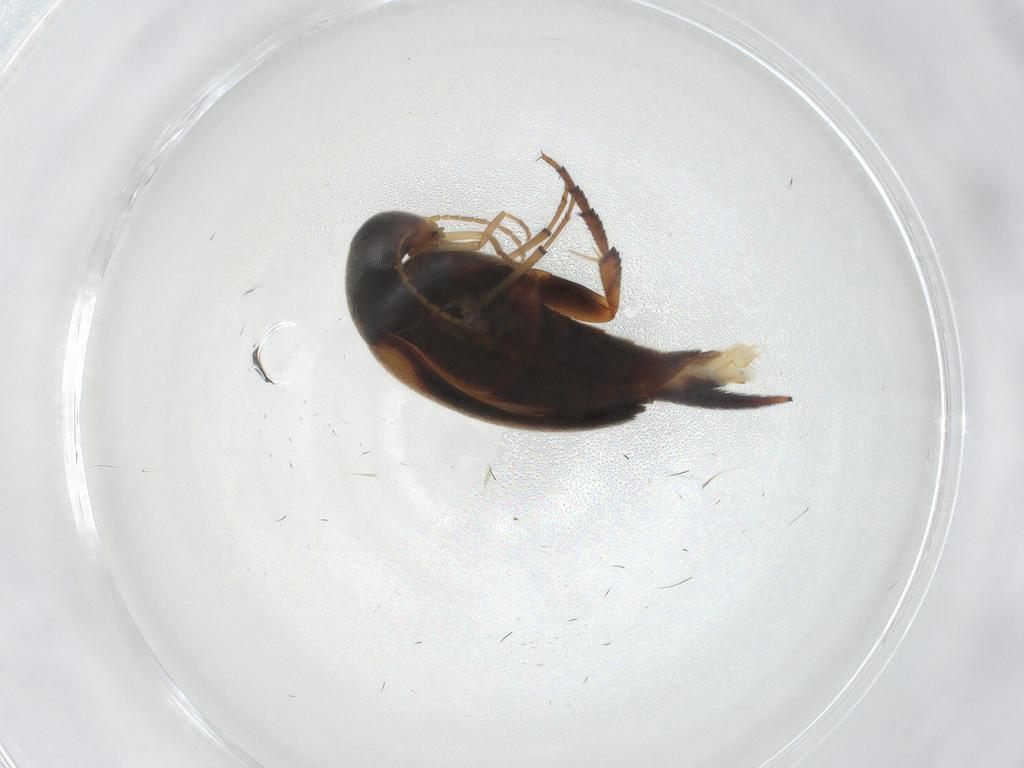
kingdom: Animalia
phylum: Arthropoda
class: Insecta
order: Coleoptera
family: Mordellidae
